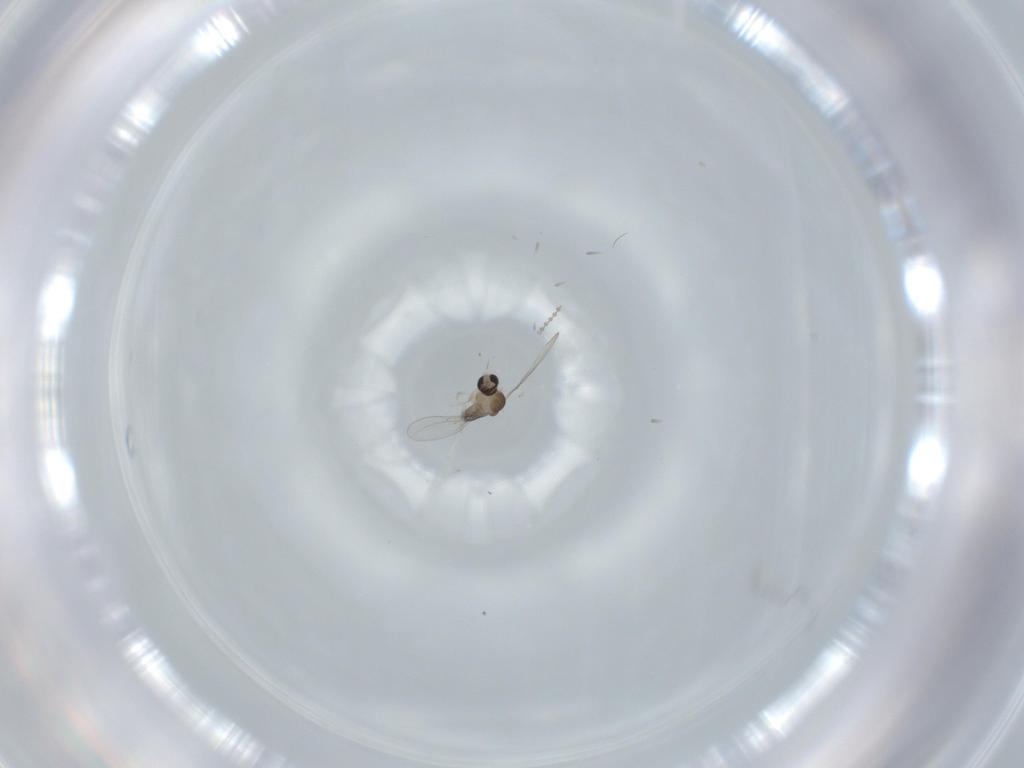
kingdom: Animalia
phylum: Arthropoda
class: Insecta
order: Diptera
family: Cecidomyiidae
